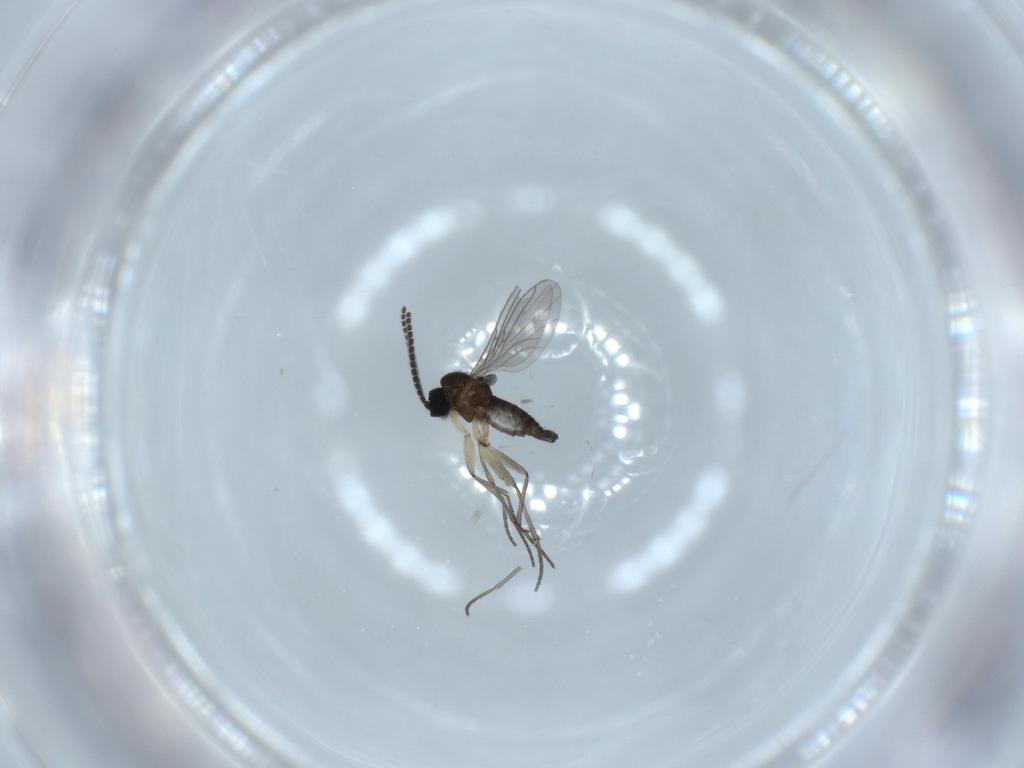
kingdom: Animalia
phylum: Arthropoda
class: Insecta
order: Diptera
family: Sciaridae
